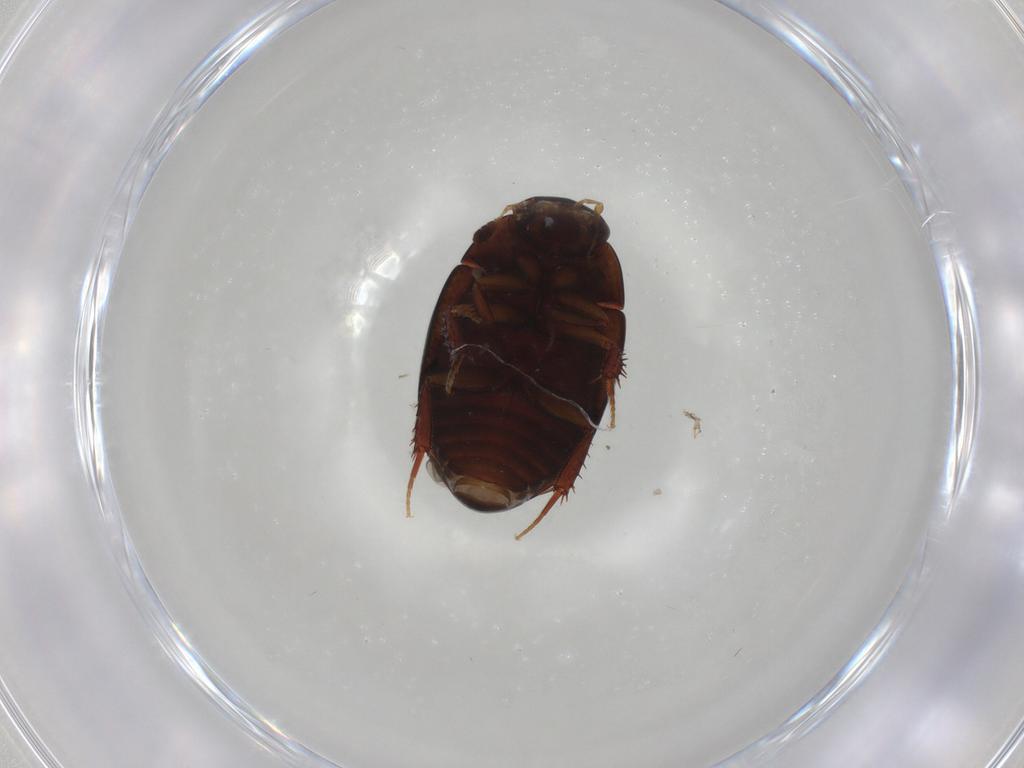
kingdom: Animalia
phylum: Arthropoda
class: Insecta
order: Coleoptera
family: Hydrophilidae
